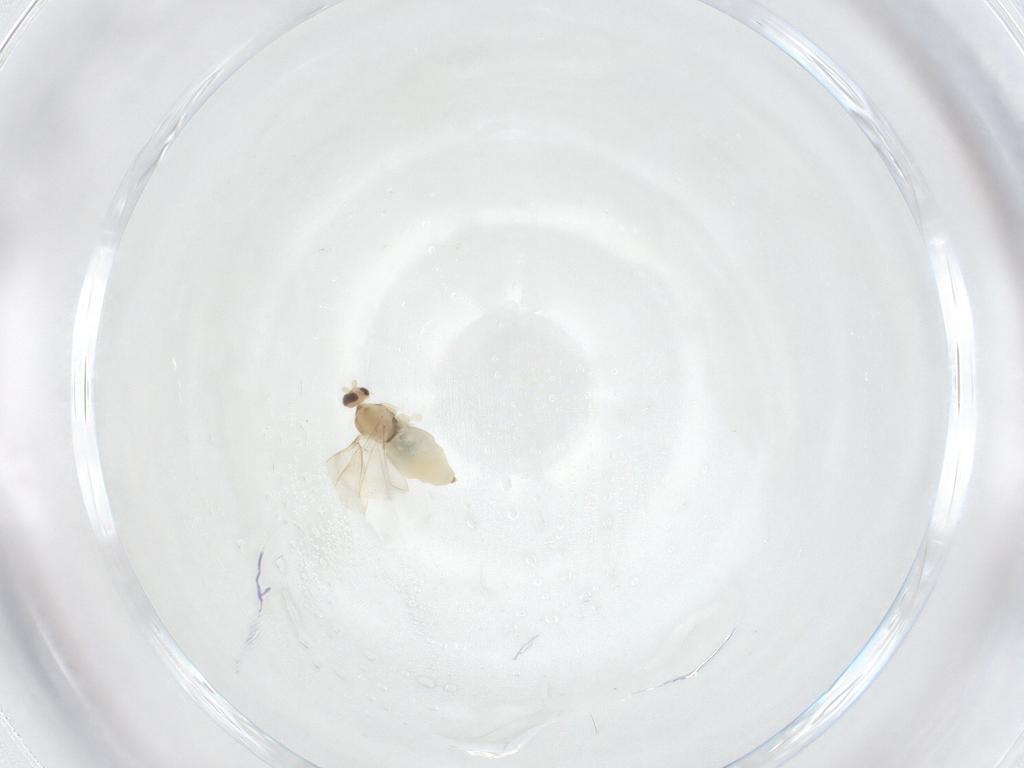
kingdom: Animalia
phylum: Arthropoda
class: Insecta
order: Diptera
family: Cecidomyiidae
